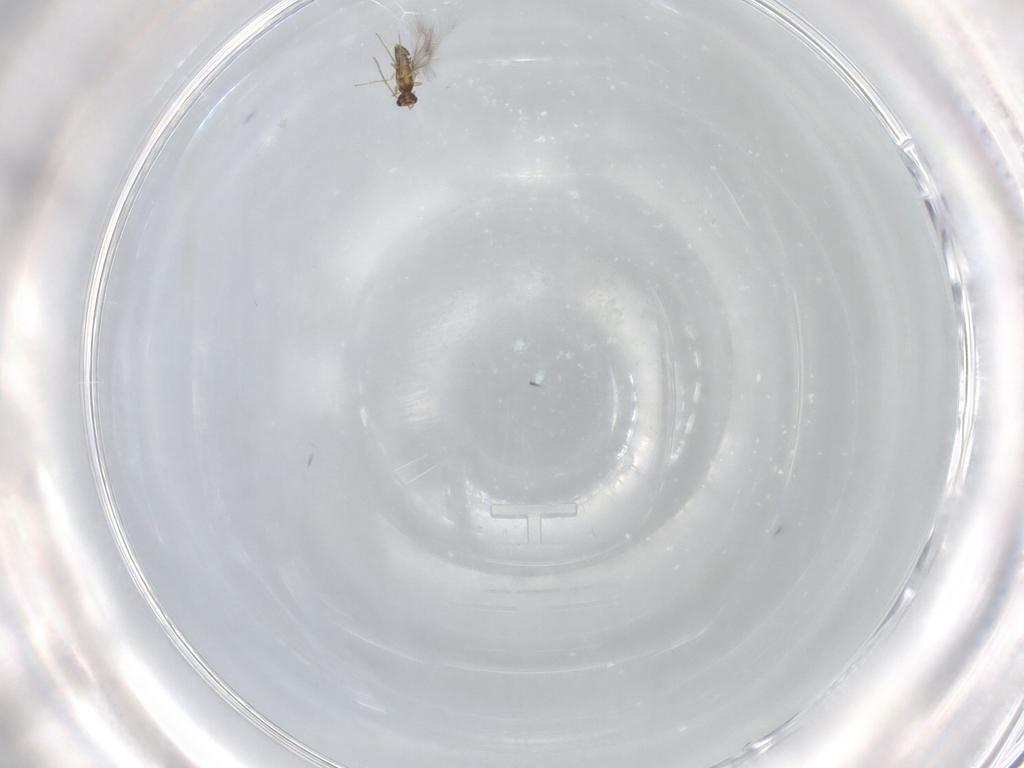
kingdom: Animalia
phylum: Arthropoda
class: Insecta
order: Hymenoptera
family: Mymaridae
